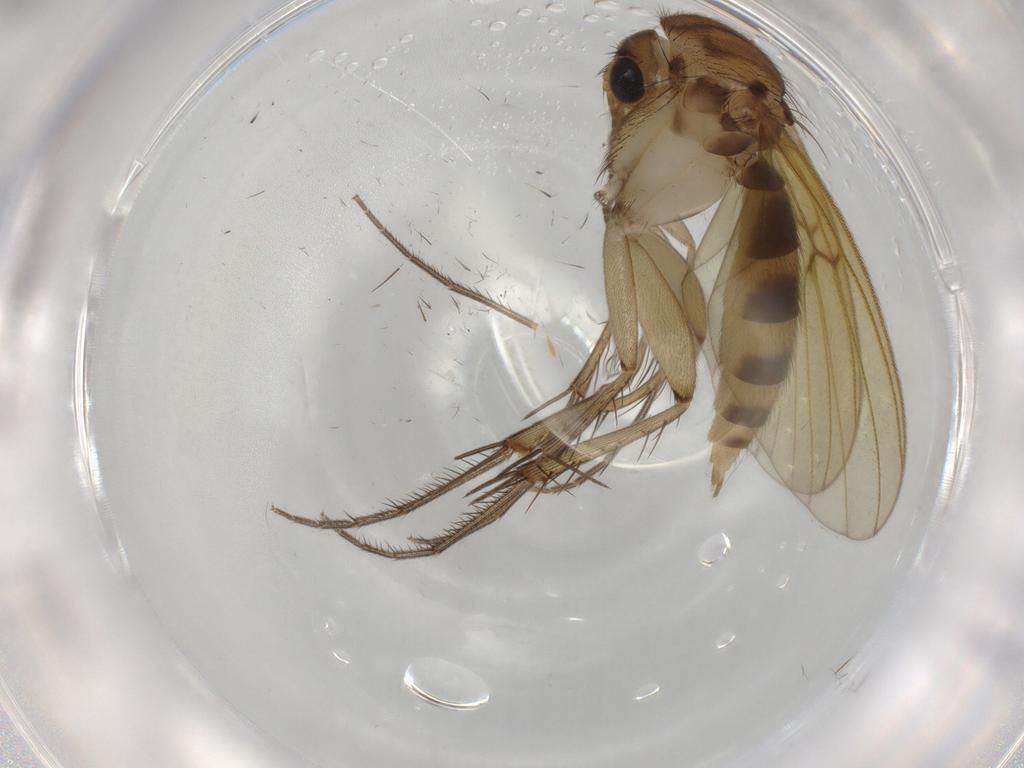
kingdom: Animalia
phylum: Arthropoda
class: Insecta
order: Diptera
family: Mycetophilidae
